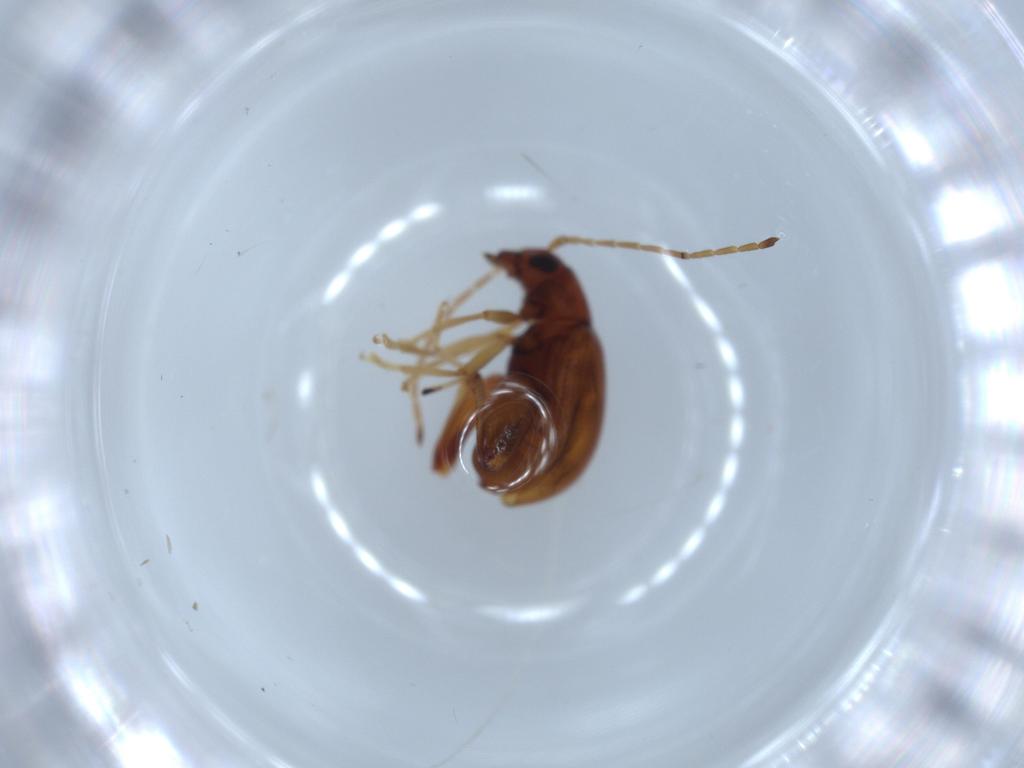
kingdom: Animalia
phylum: Arthropoda
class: Insecta
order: Coleoptera
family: Chrysomelidae
